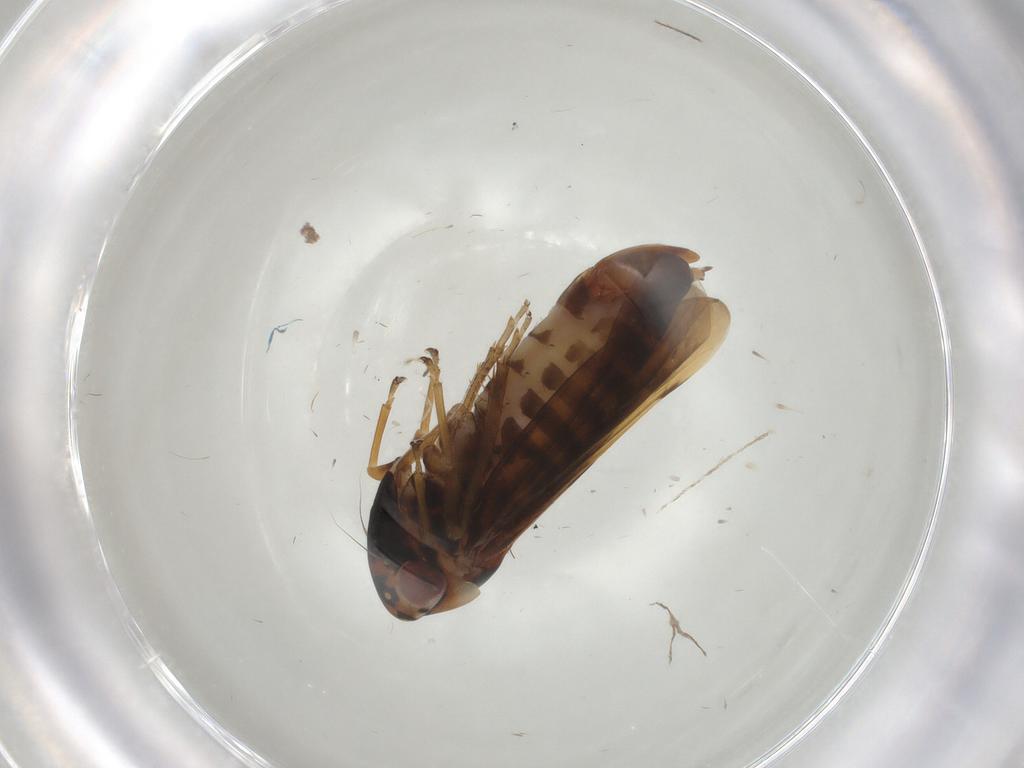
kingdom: Animalia
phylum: Arthropoda
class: Insecta
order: Hemiptera
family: Cicadellidae
